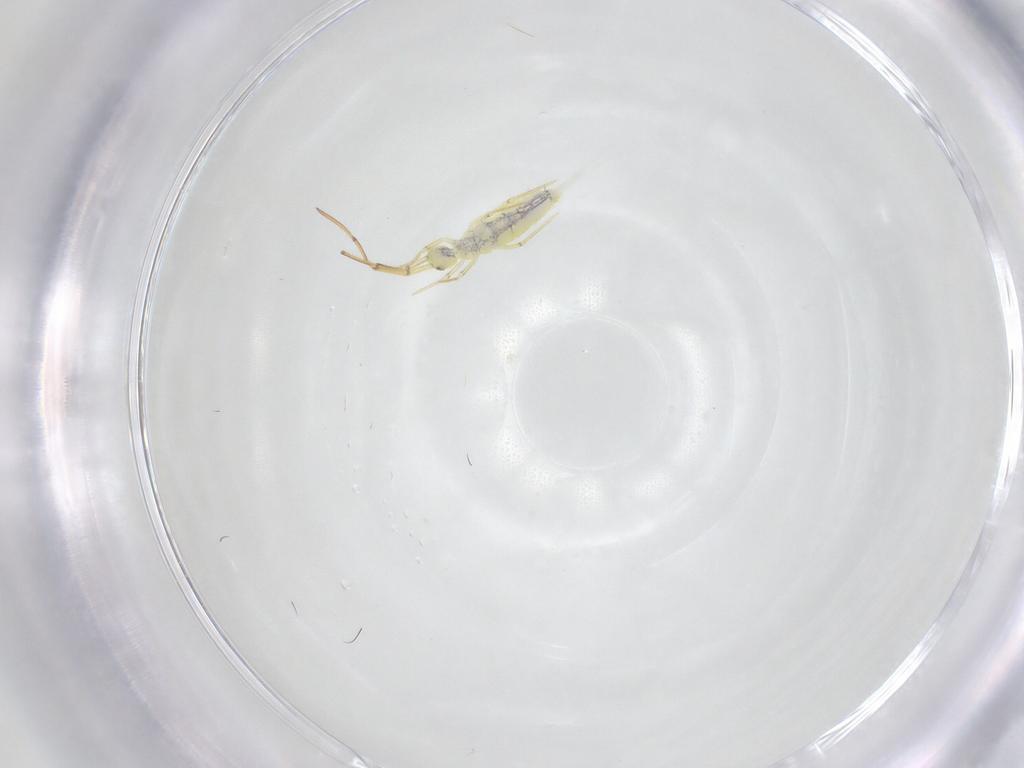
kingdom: Animalia
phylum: Arthropoda
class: Collembola
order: Entomobryomorpha
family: Entomobryidae
